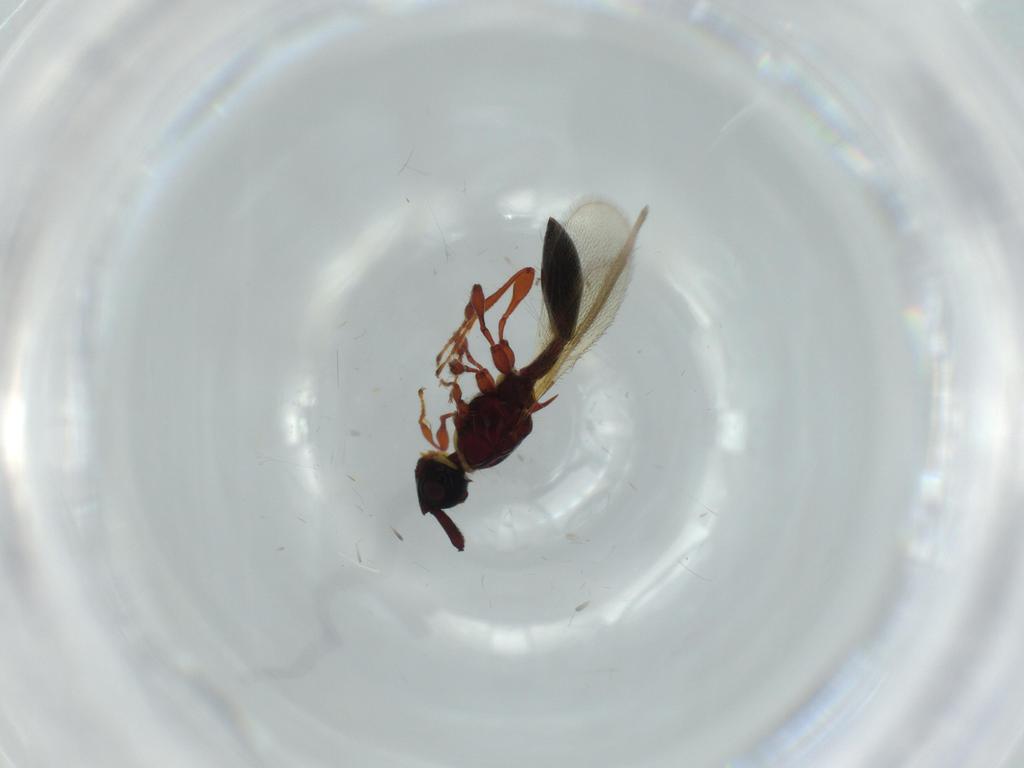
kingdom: Animalia
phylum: Arthropoda
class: Insecta
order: Hymenoptera
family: Diapriidae
